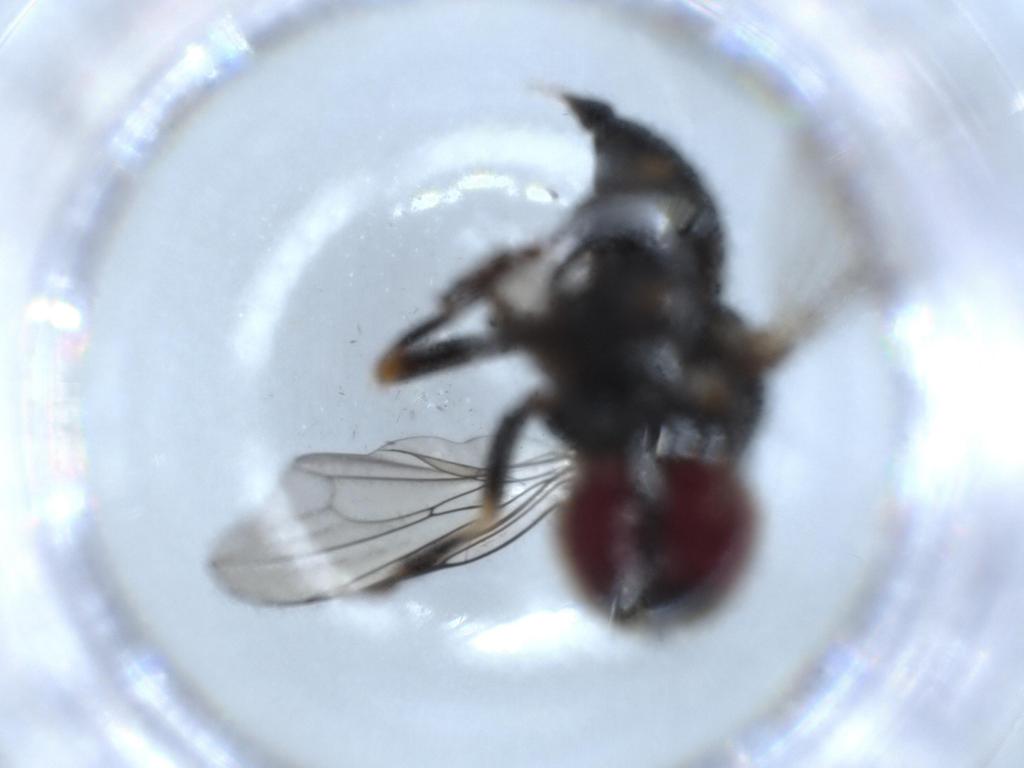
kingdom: Animalia
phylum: Arthropoda
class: Insecta
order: Diptera
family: Pipunculidae
